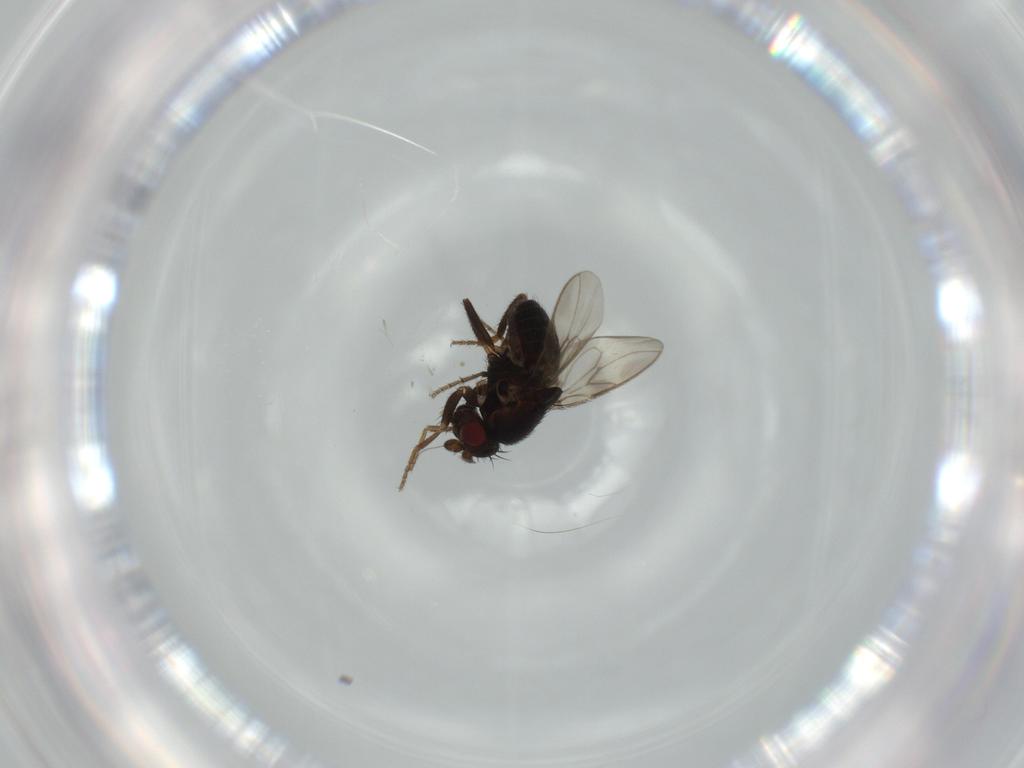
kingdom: Animalia
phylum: Arthropoda
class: Insecta
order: Diptera
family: Sphaeroceridae
